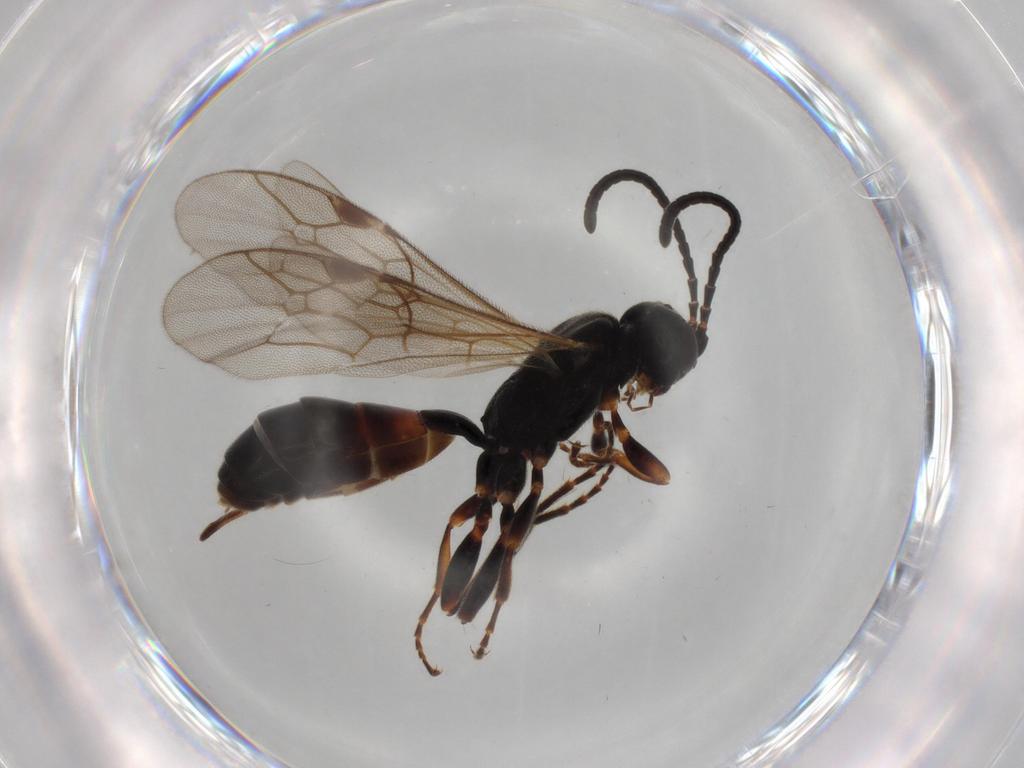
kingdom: Animalia
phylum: Arthropoda
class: Insecta
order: Hymenoptera
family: Ichneumonidae
